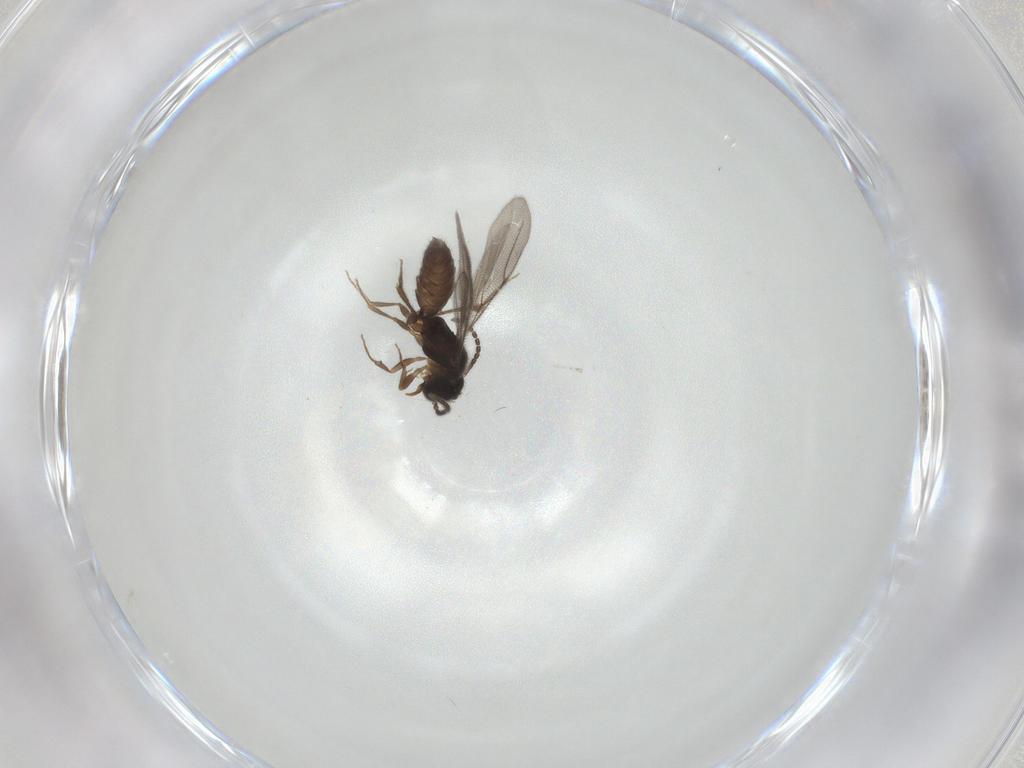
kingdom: Animalia
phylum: Arthropoda
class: Insecta
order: Hymenoptera
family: Bethylidae
